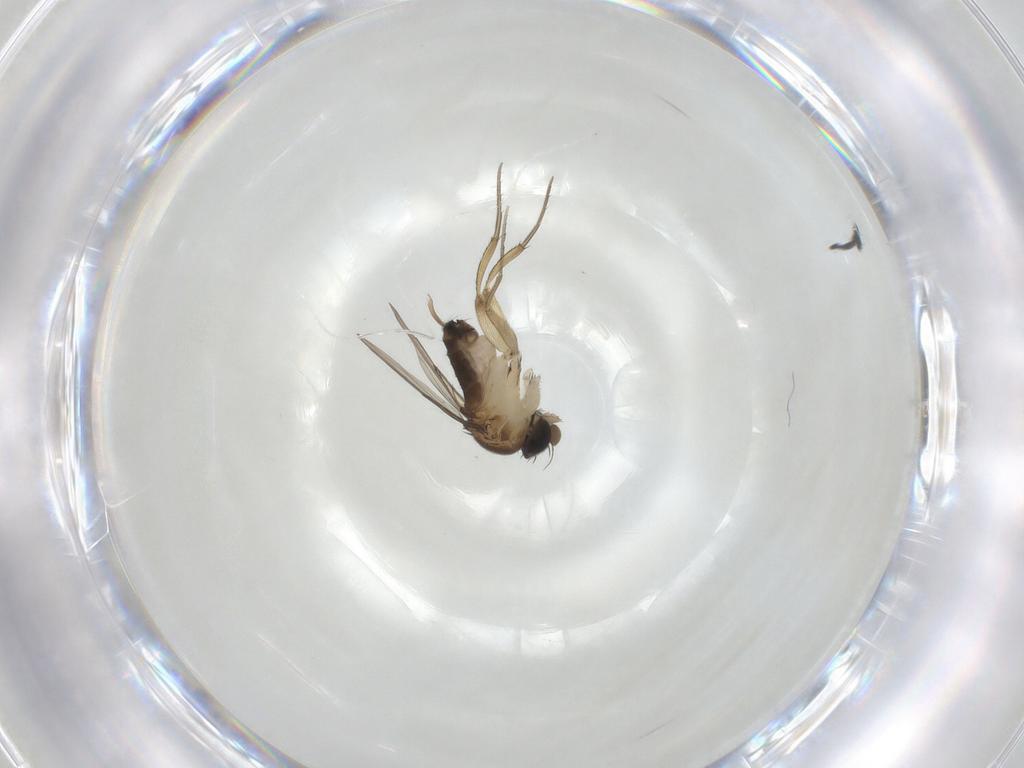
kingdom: Animalia
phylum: Arthropoda
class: Insecta
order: Diptera
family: Phoridae
